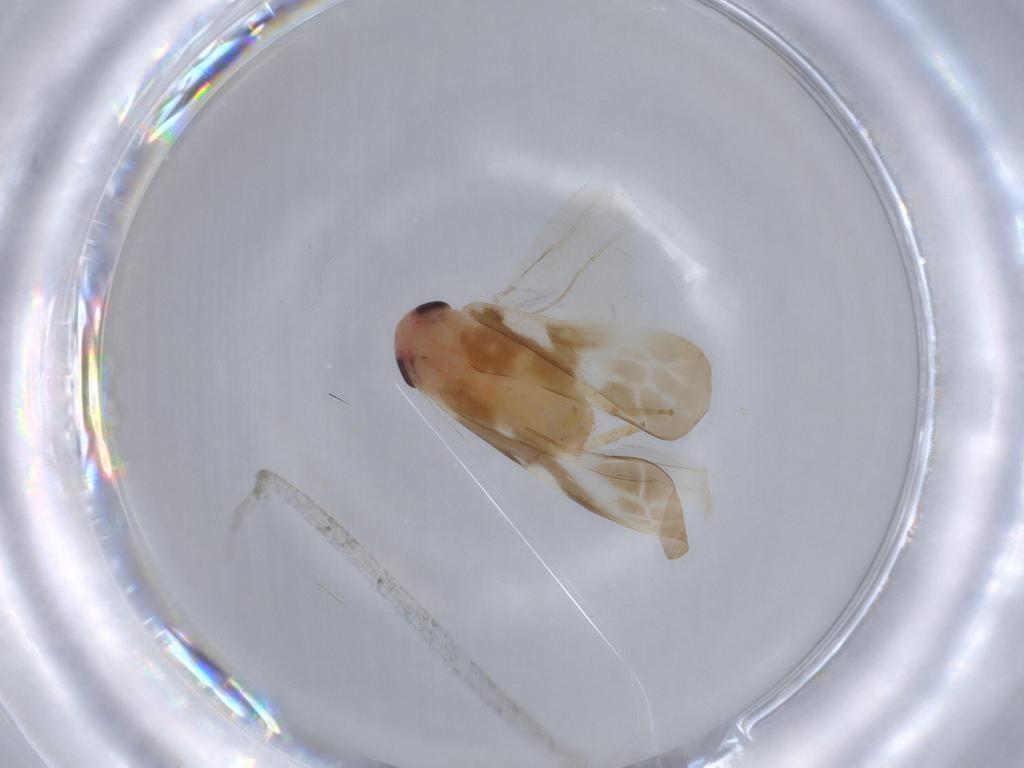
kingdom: Animalia
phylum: Arthropoda
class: Insecta
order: Hemiptera
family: Cicadellidae
